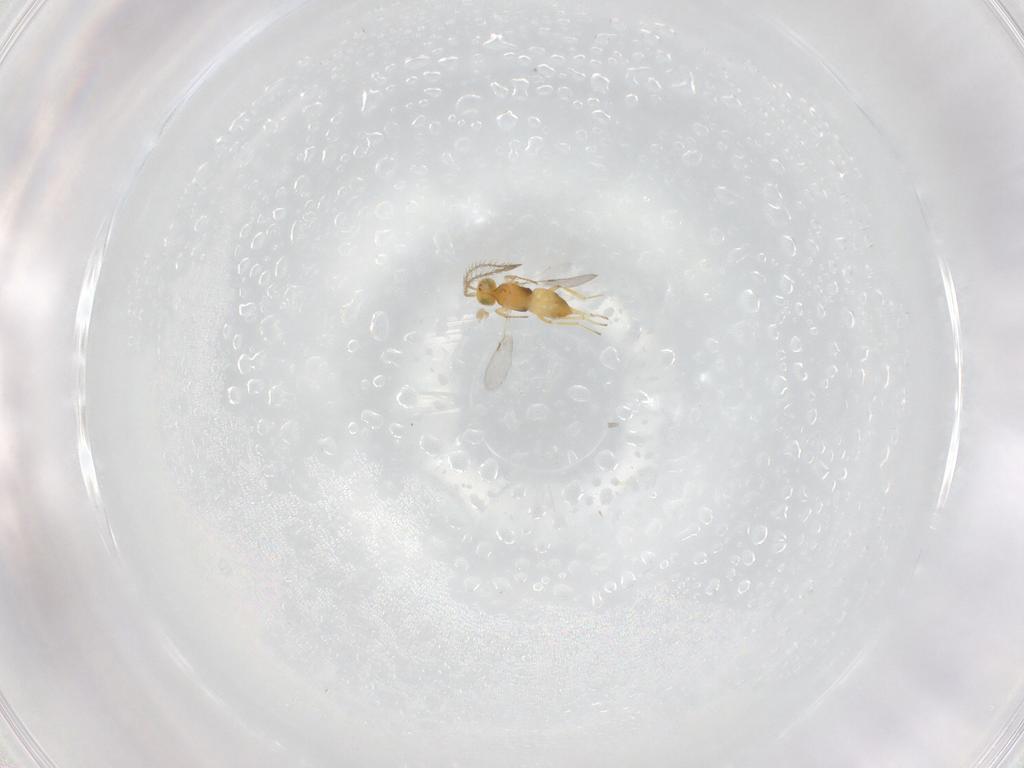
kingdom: Animalia
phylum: Arthropoda
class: Insecta
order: Hymenoptera
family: Encyrtidae
